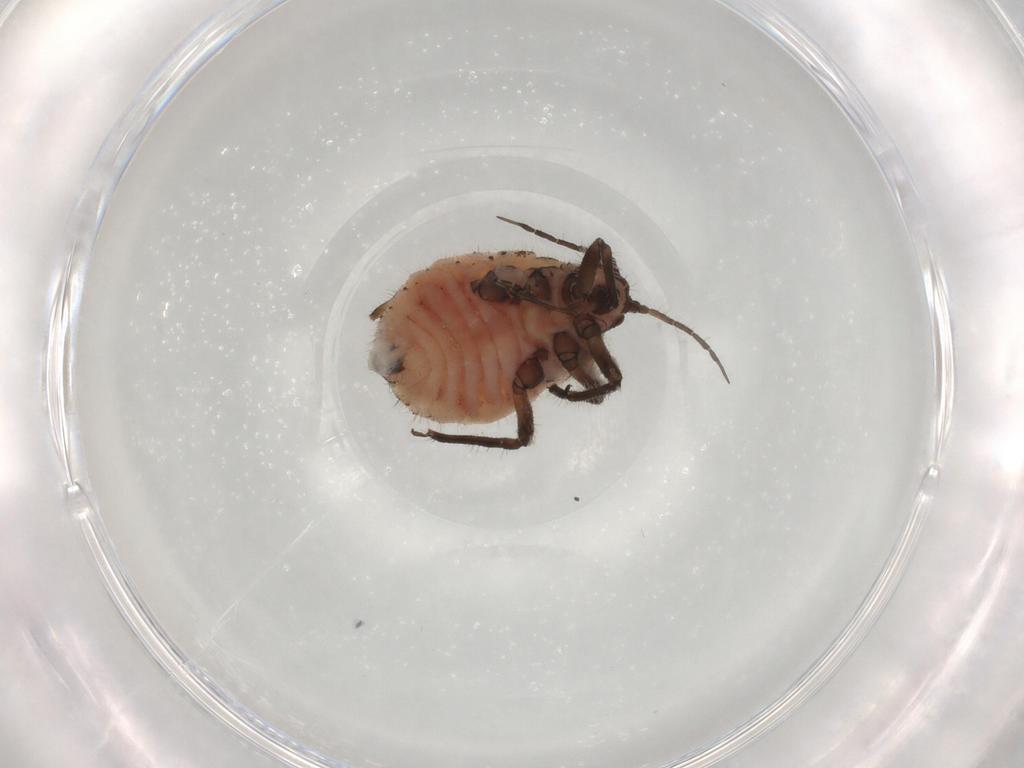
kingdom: Animalia
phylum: Arthropoda
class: Insecta
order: Hemiptera
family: Aphididae
